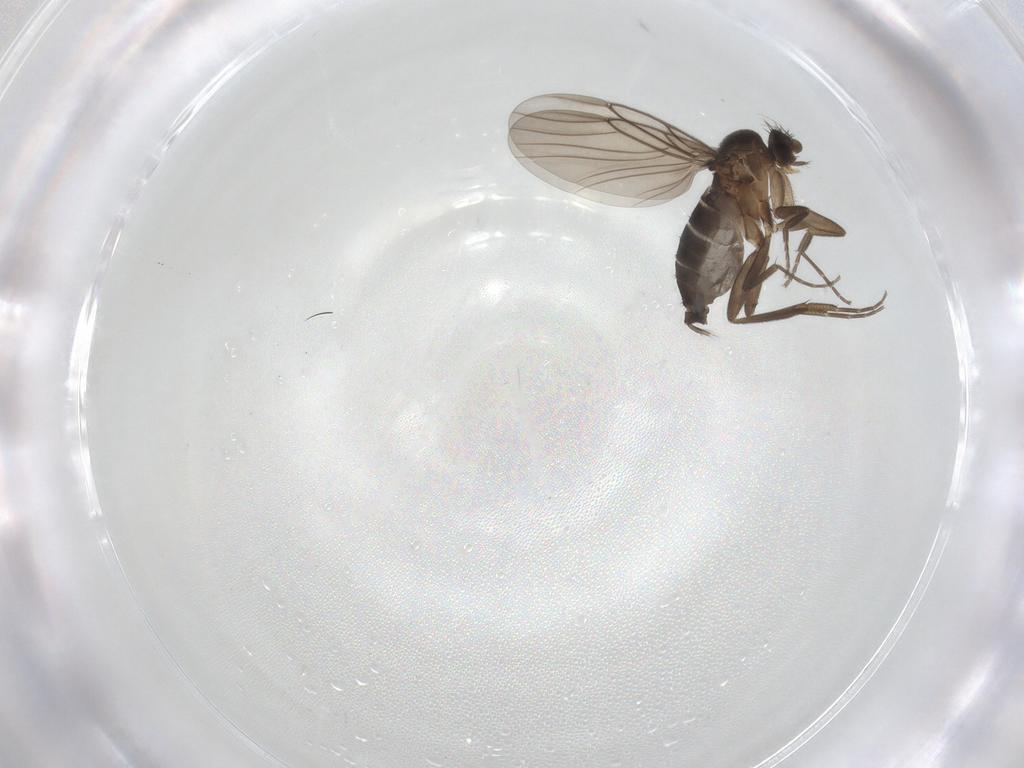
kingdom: Animalia
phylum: Arthropoda
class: Insecta
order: Diptera
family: Phoridae
